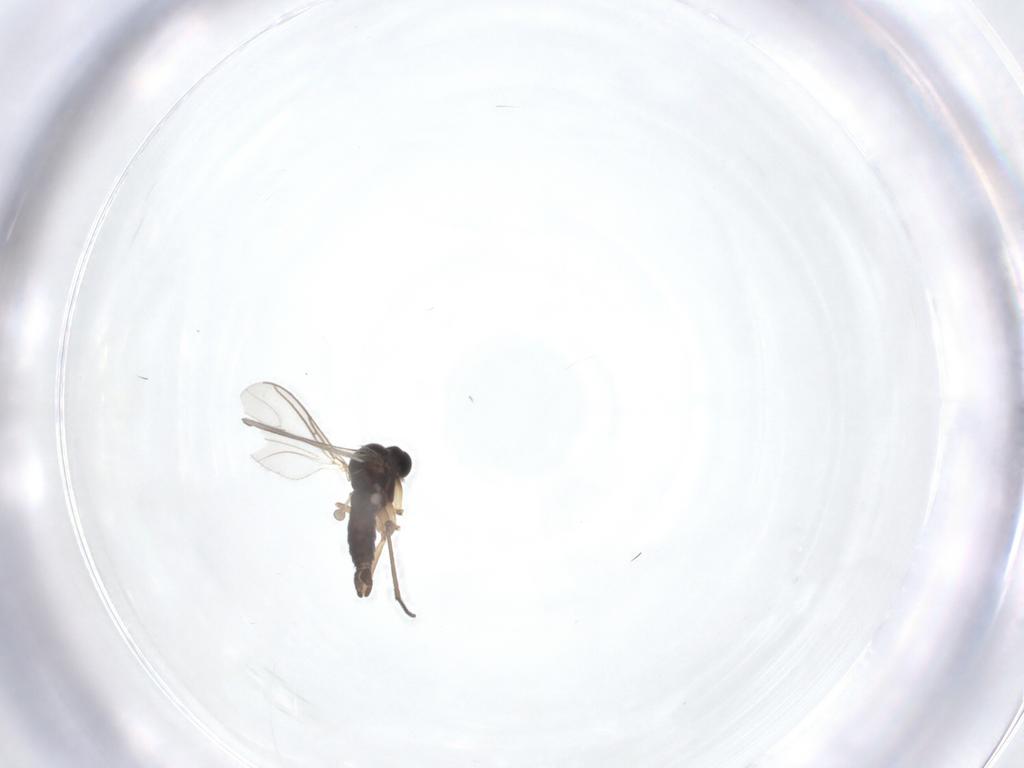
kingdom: Animalia
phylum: Arthropoda
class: Insecta
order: Diptera
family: Sciaridae
